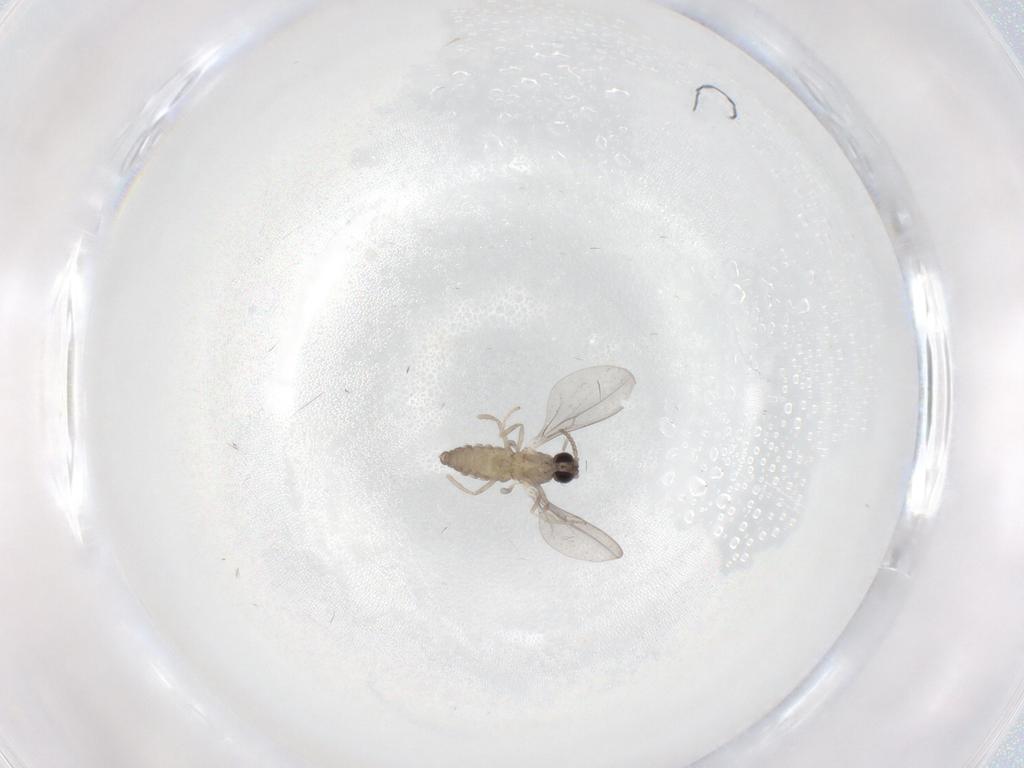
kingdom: Animalia
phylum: Arthropoda
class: Insecta
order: Diptera
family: Cecidomyiidae
